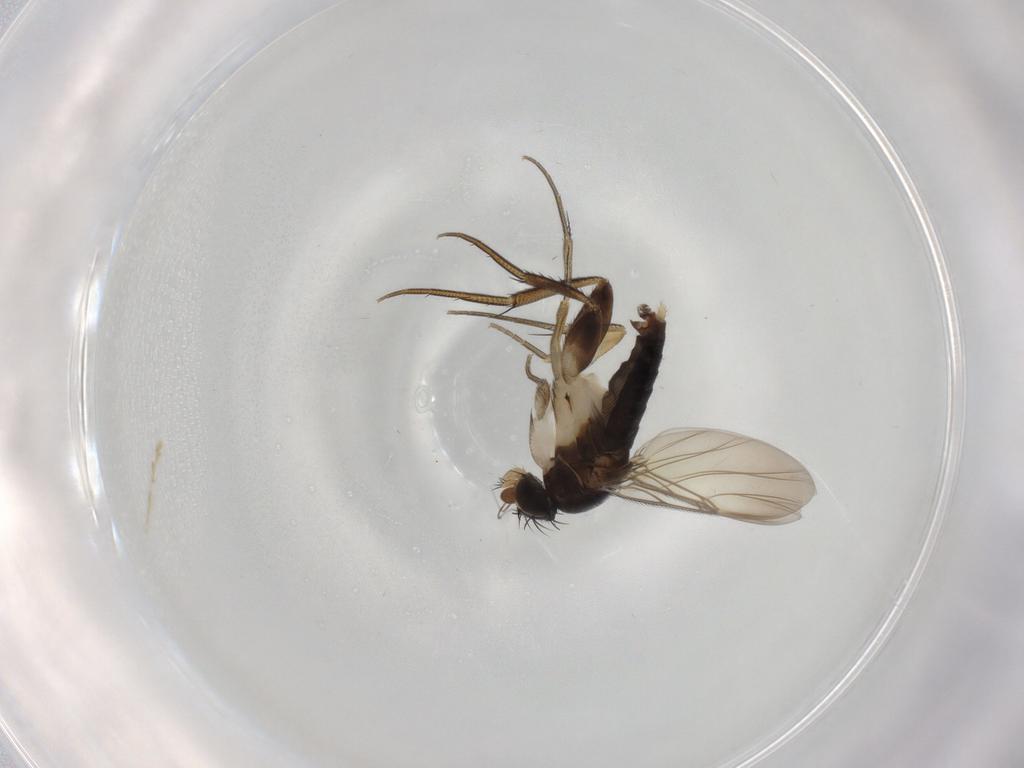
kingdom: Animalia
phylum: Arthropoda
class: Insecta
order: Diptera
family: Phoridae
